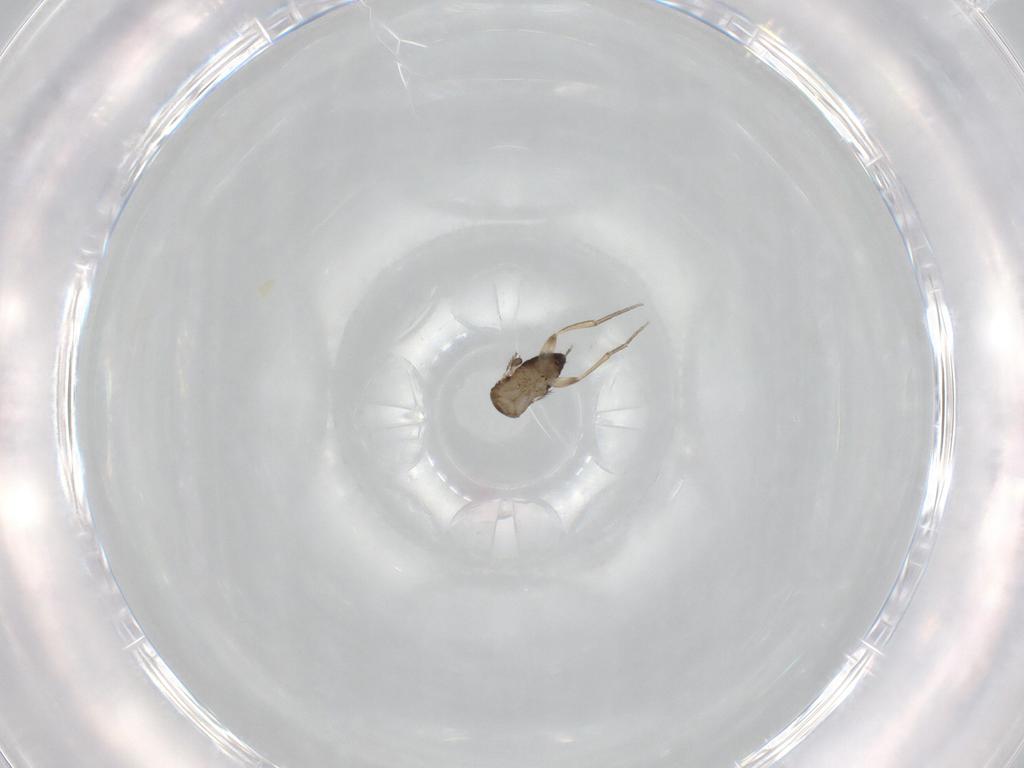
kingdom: Animalia
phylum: Arthropoda
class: Insecta
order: Diptera
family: Phoridae
